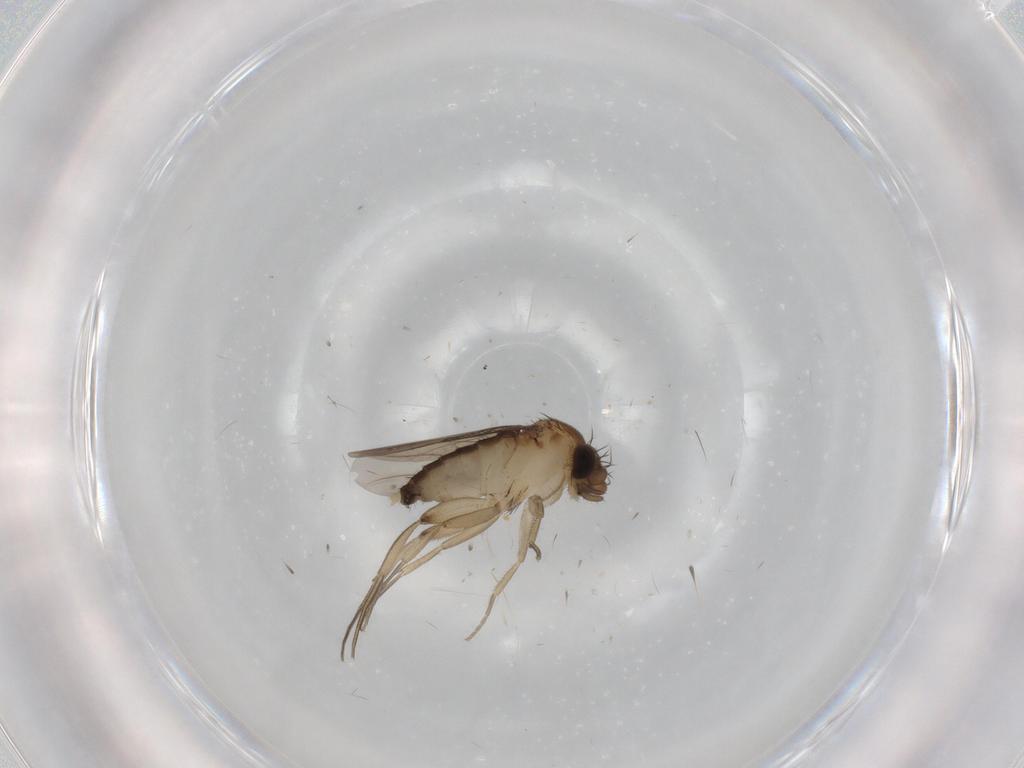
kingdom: Animalia
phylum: Arthropoda
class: Insecta
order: Diptera
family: Phoridae
